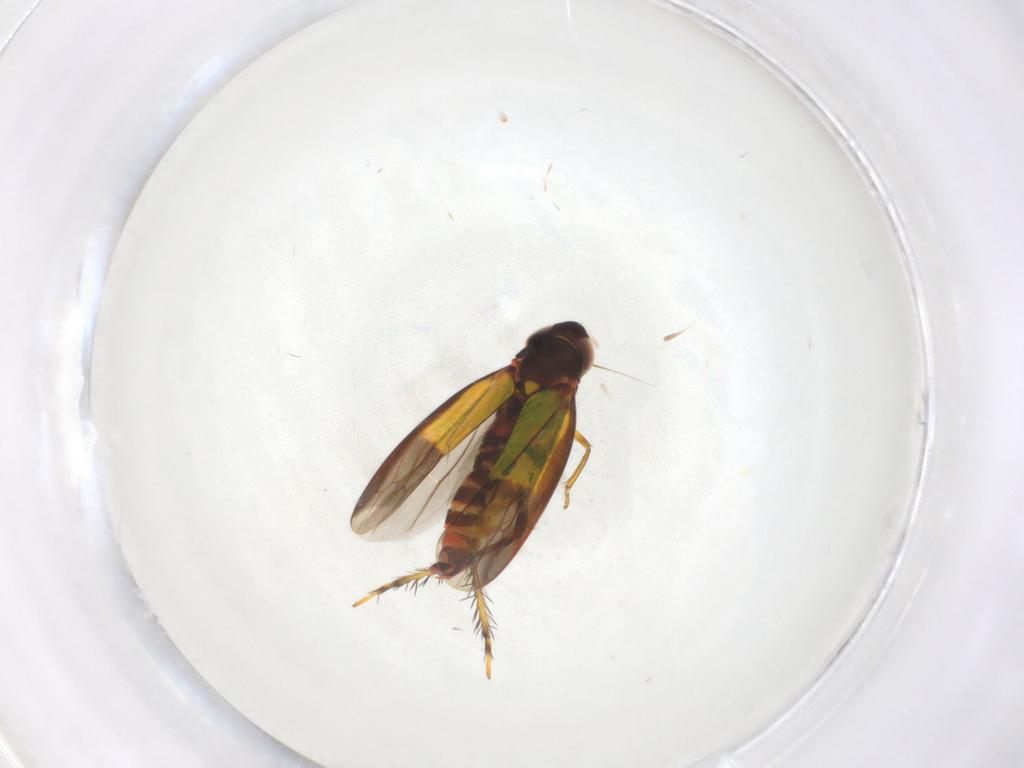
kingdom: Animalia
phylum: Arthropoda
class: Insecta
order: Hemiptera
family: Cicadellidae
